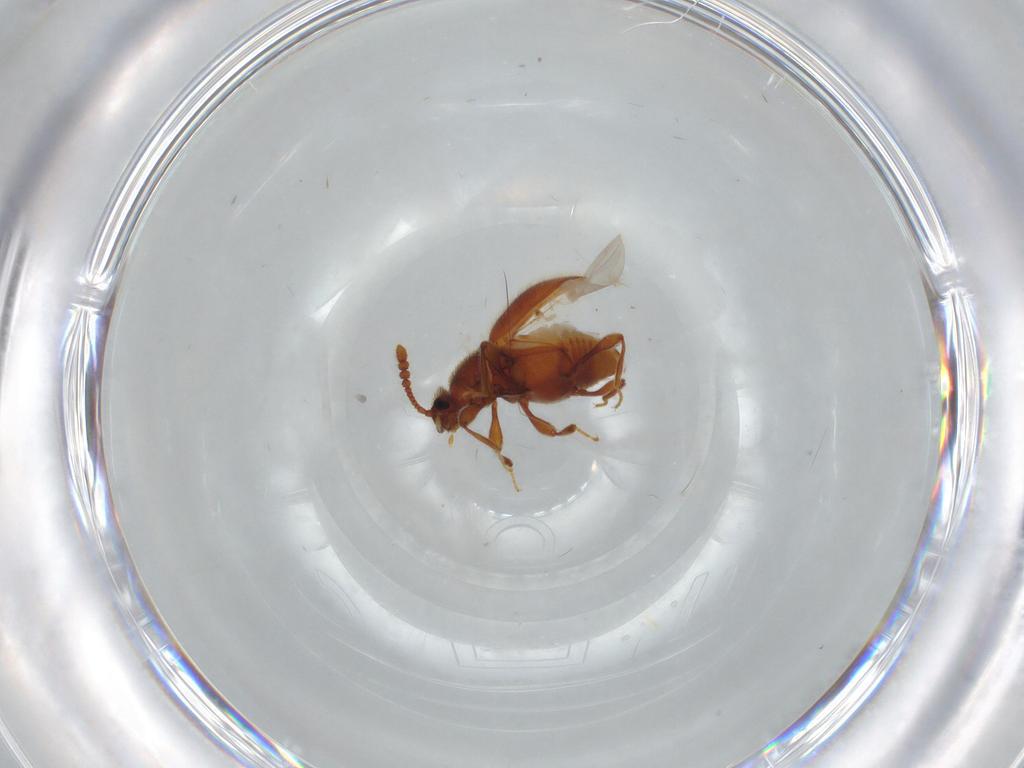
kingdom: Animalia
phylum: Arthropoda
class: Insecta
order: Coleoptera
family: Staphylinidae
